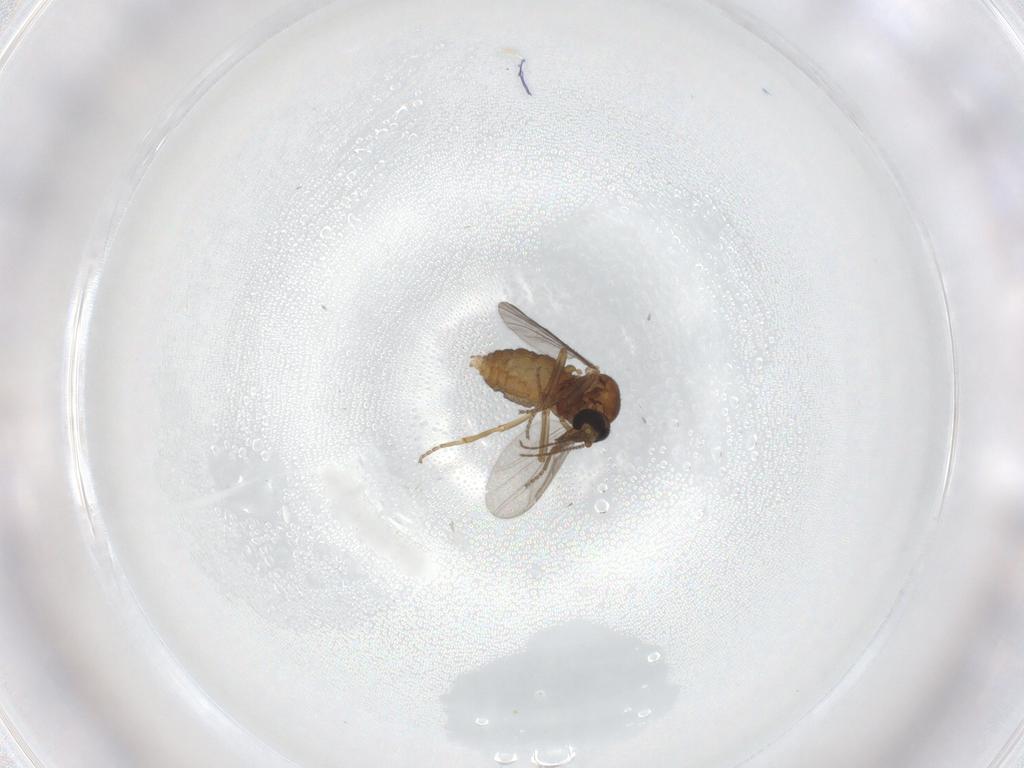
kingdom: Animalia
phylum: Arthropoda
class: Insecta
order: Diptera
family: Ceratopogonidae
